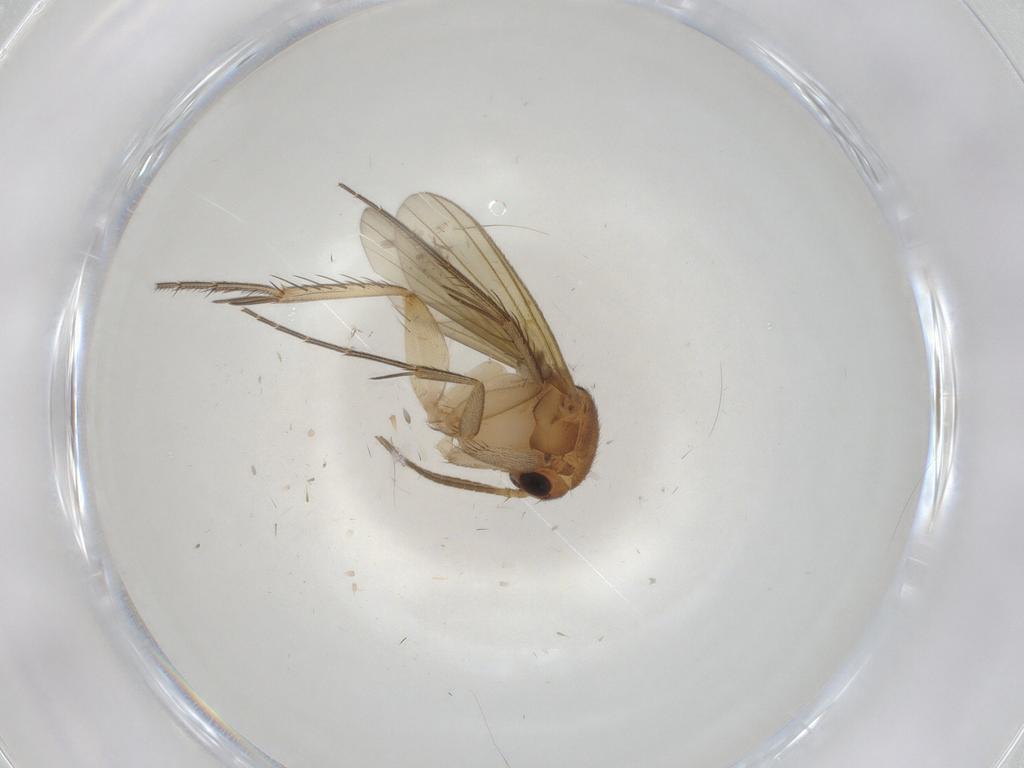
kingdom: Animalia
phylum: Arthropoda
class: Insecta
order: Diptera
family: Mycetophilidae
